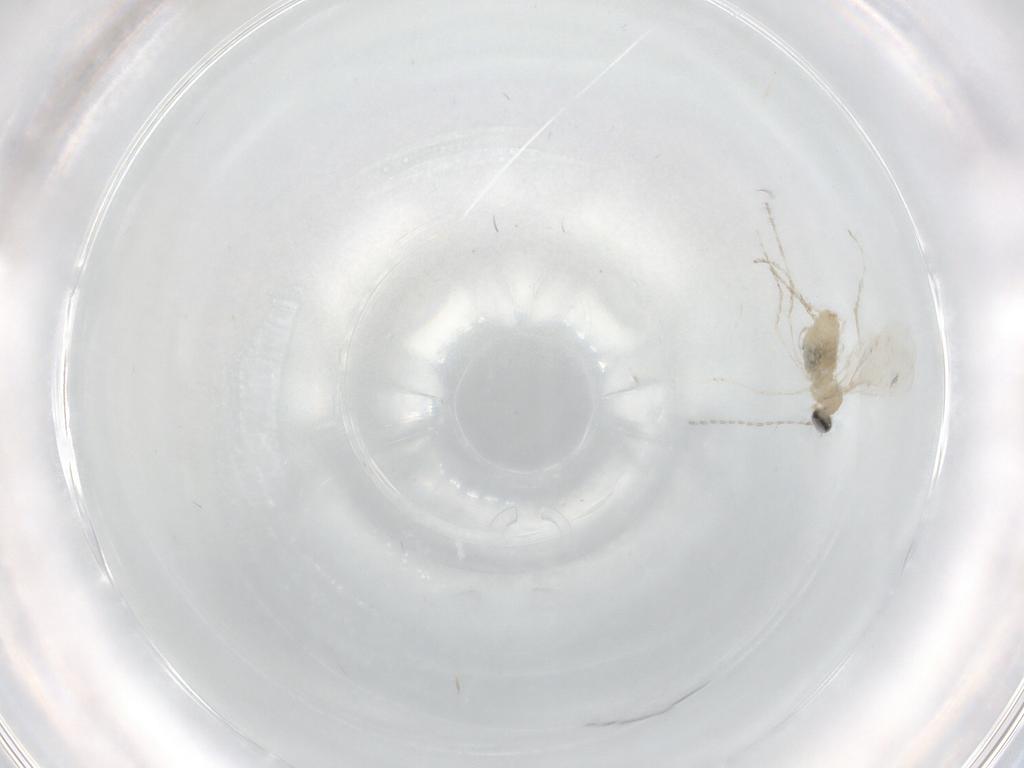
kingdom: Animalia
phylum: Arthropoda
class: Insecta
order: Diptera
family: Cecidomyiidae
